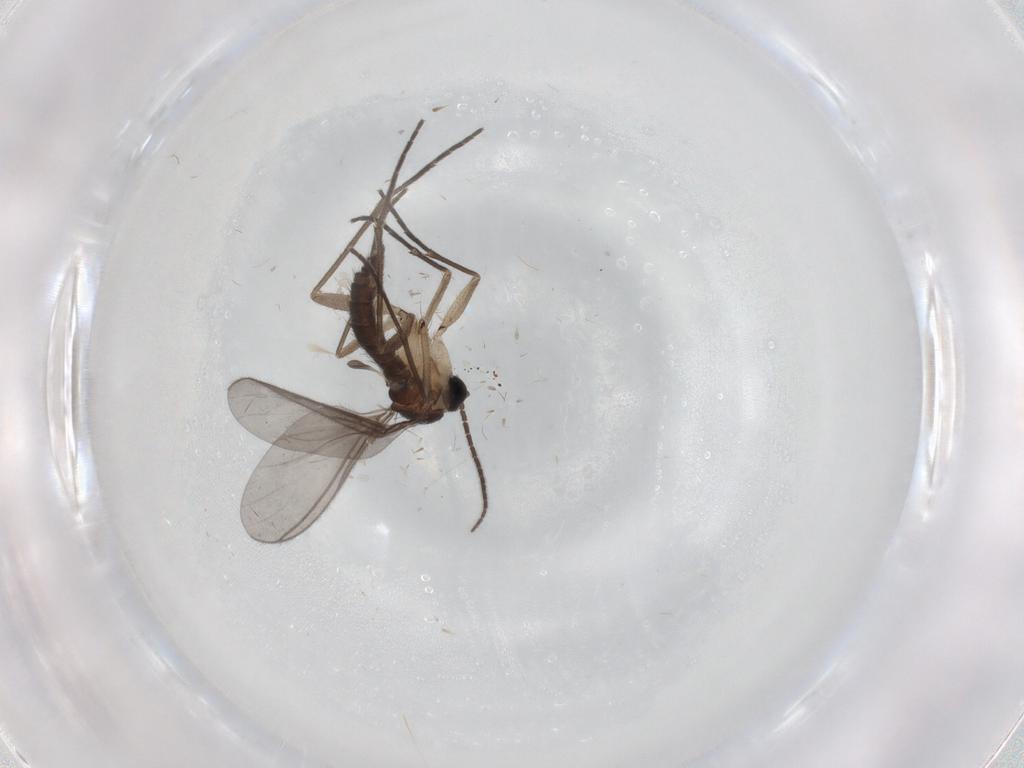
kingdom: Animalia
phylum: Arthropoda
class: Insecta
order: Diptera
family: Sciaridae
